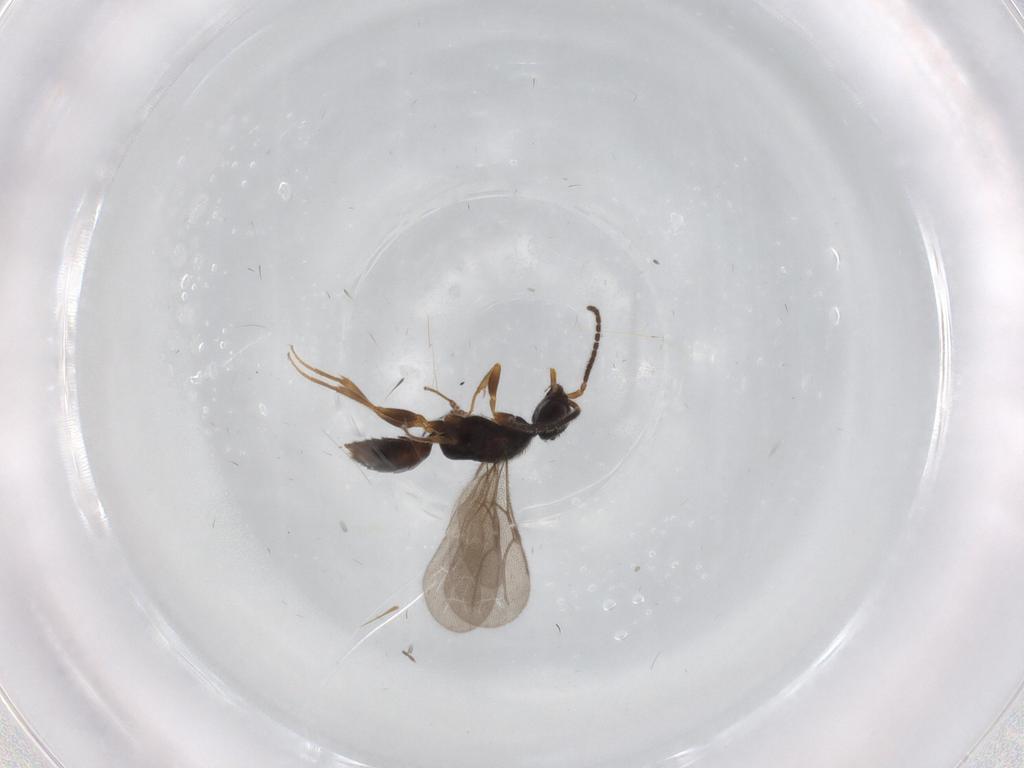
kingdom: Animalia
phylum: Arthropoda
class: Insecta
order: Hymenoptera
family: Bethylidae
